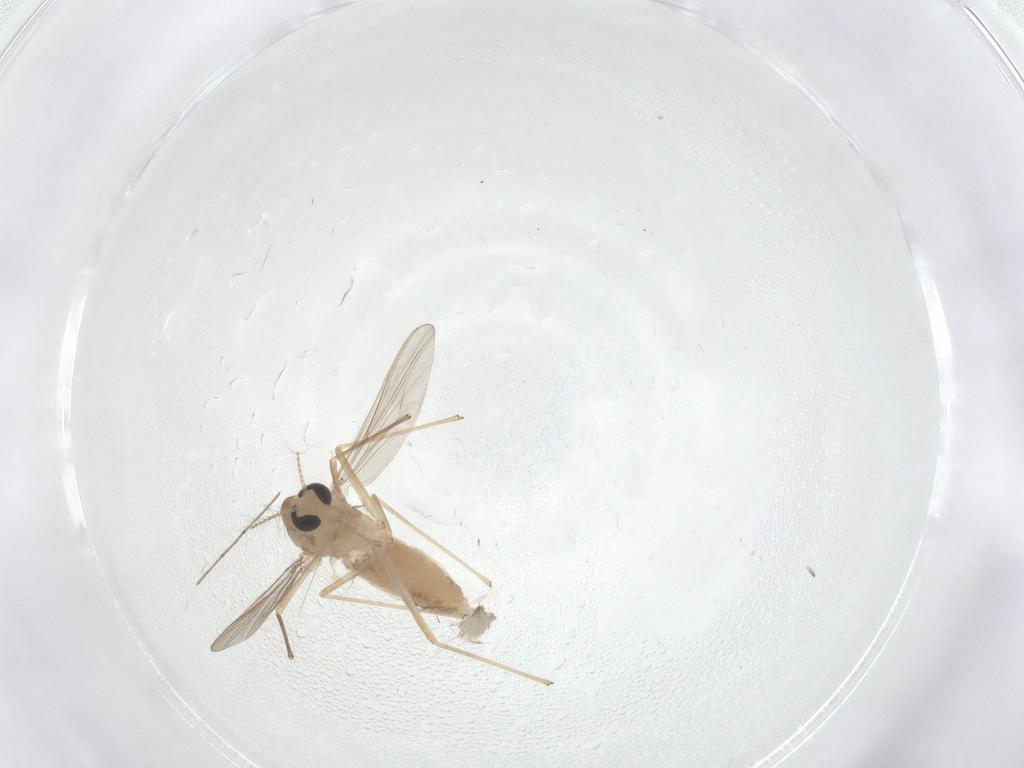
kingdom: Animalia
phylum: Arthropoda
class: Insecta
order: Diptera
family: Chironomidae
